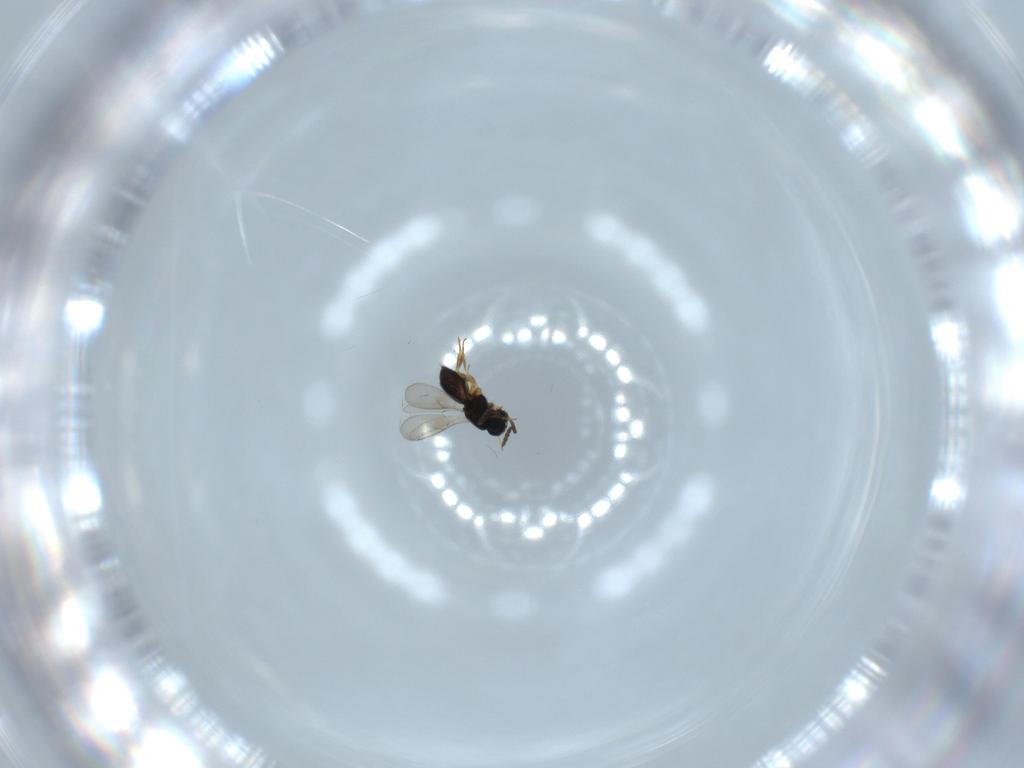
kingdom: Animalia
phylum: Arthropoda
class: Insecta
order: Hymenoptera
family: Scelionidae
